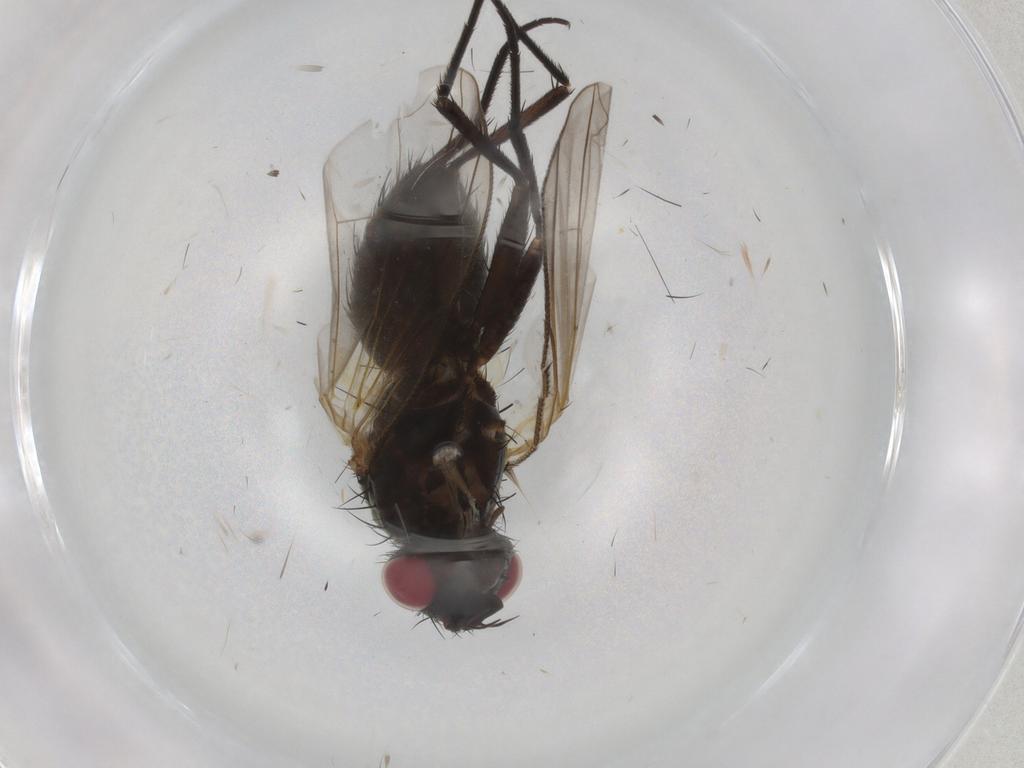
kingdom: Animalia
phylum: Arthropoda
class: Insecta
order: Diptera
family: Tachinidae
